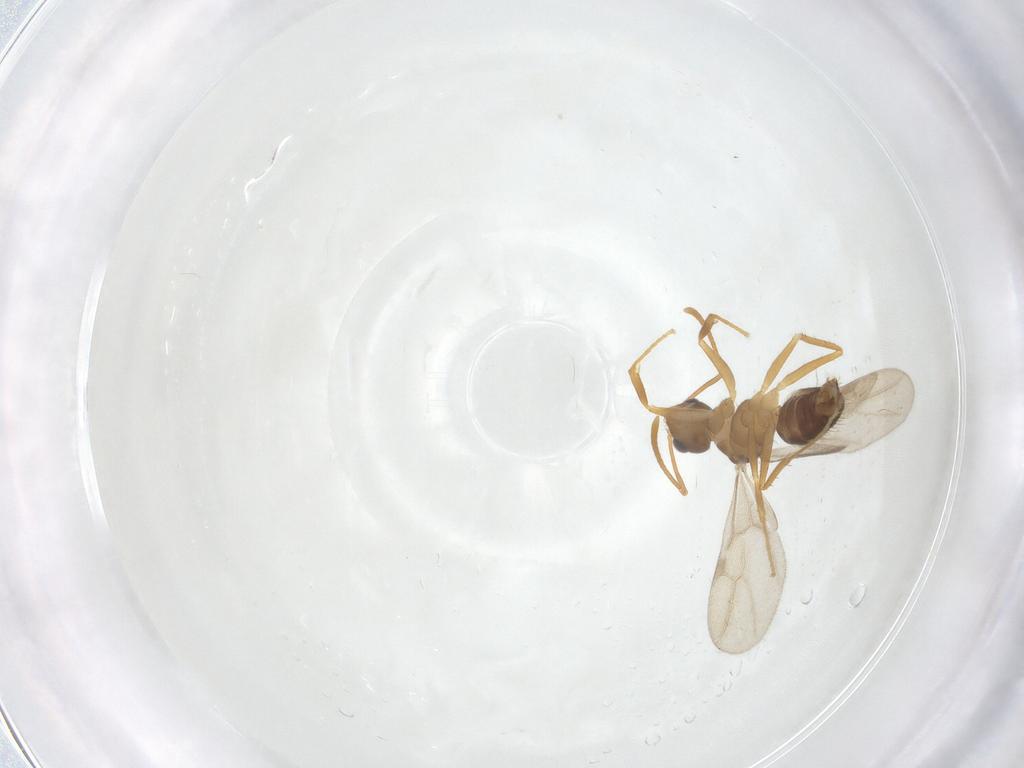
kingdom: Animalia
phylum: Arthropoda
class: Insecta
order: Hymenoptera
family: Formicidae
